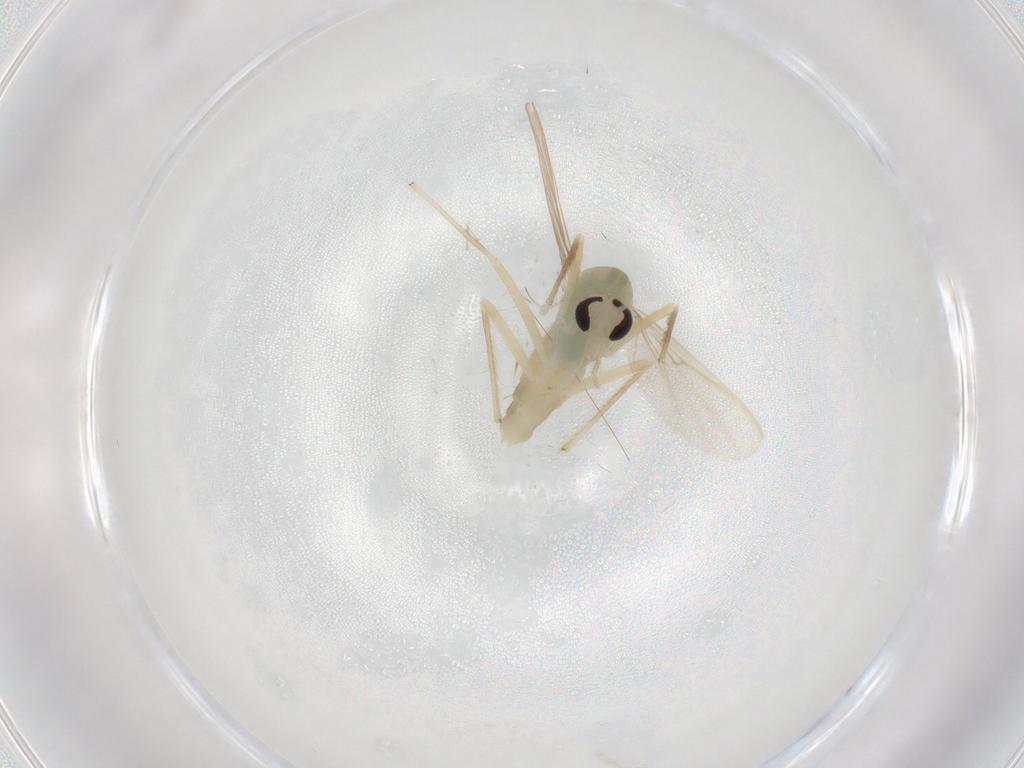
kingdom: Animalia
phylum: Arthropoda
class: Insecta
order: Diptera
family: Chironomidae
